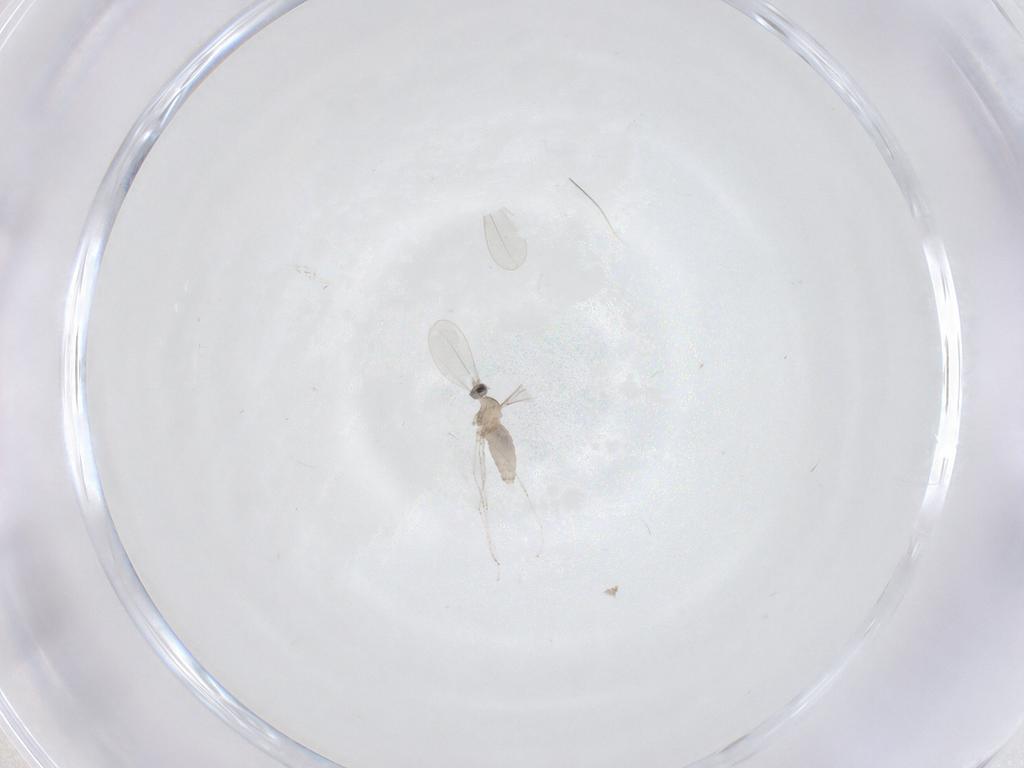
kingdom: Animalia
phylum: Arthropoda
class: Insecta
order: Diptera
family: Cecidomyiidae
